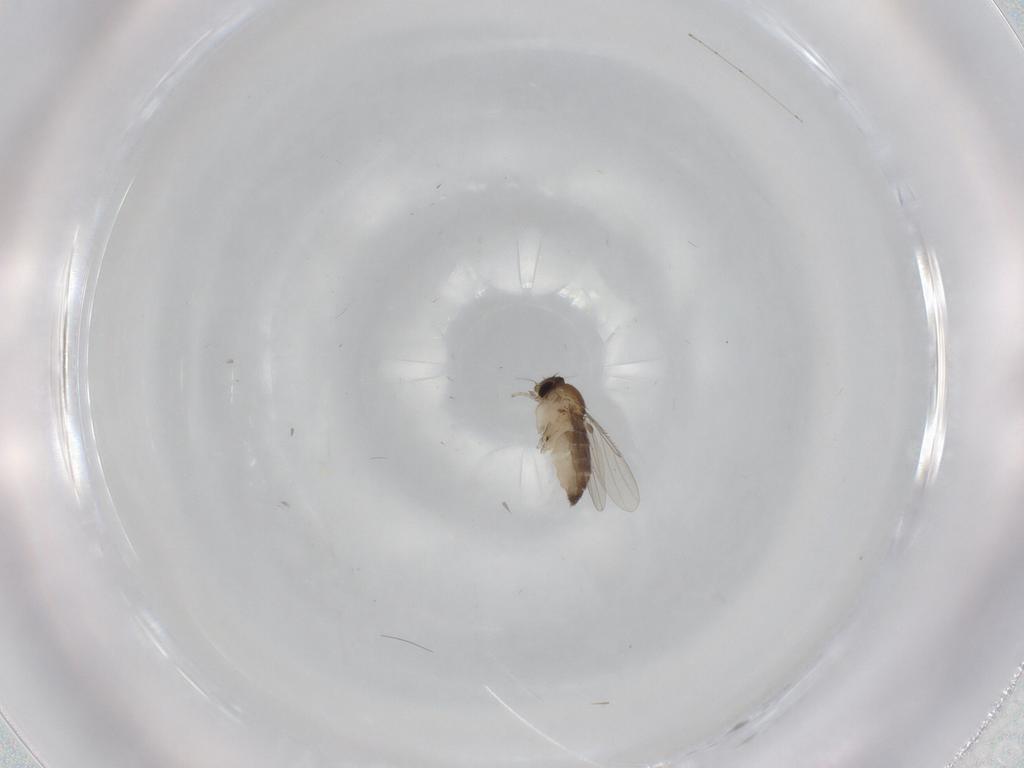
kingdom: Animalia
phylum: Arthropoda
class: Insecta
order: Diptera
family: Phoridae
